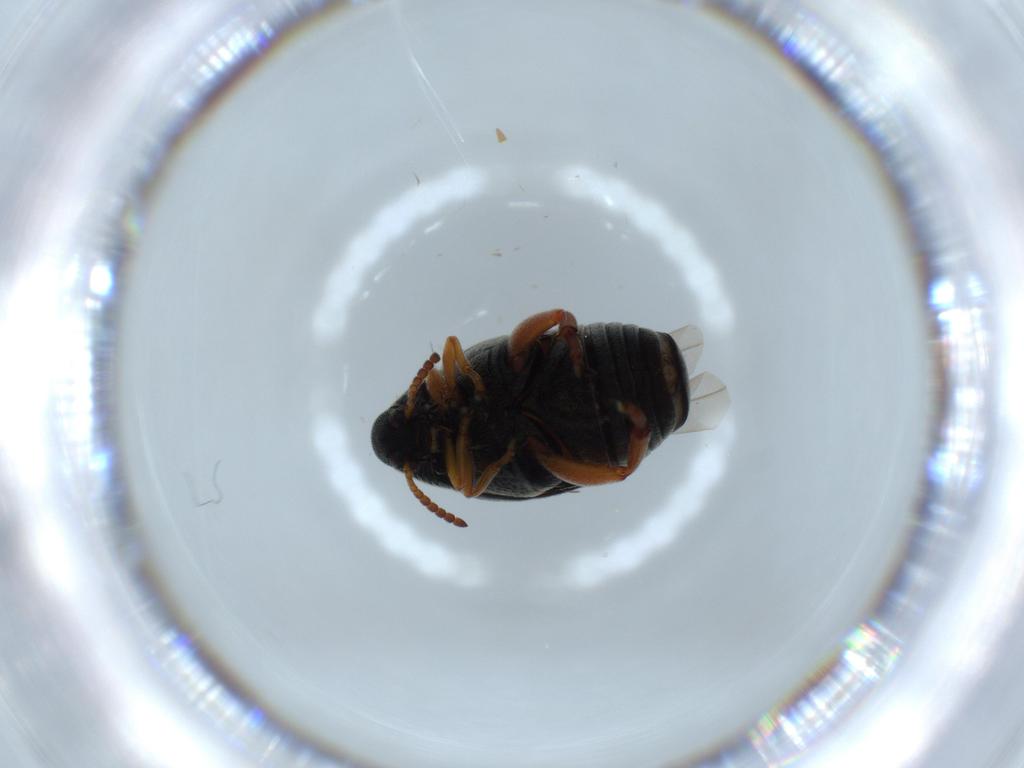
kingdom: Animalia
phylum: Arthropoda
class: Insecta
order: Coleoptera
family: Chrysomelidae
